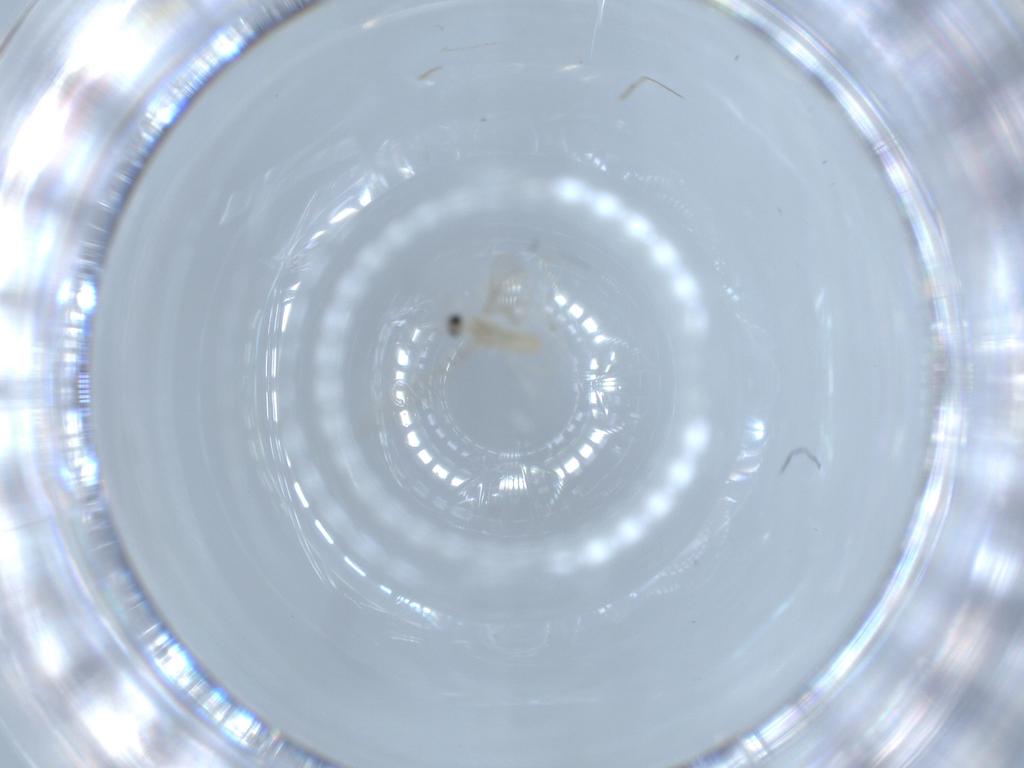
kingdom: Animalia
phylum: Arthropoda
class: Insecta
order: Diptera
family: Cecidomyiidae
